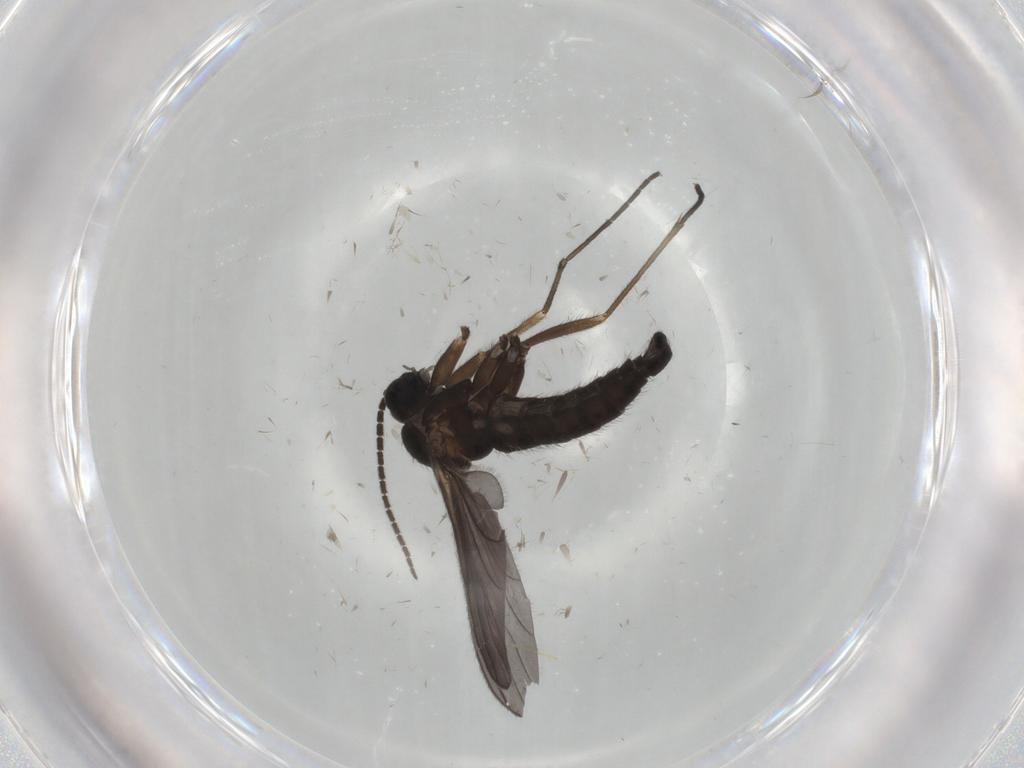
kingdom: Animalia
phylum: Arthropoda
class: Insecta
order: Diptera
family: Sciaridae
